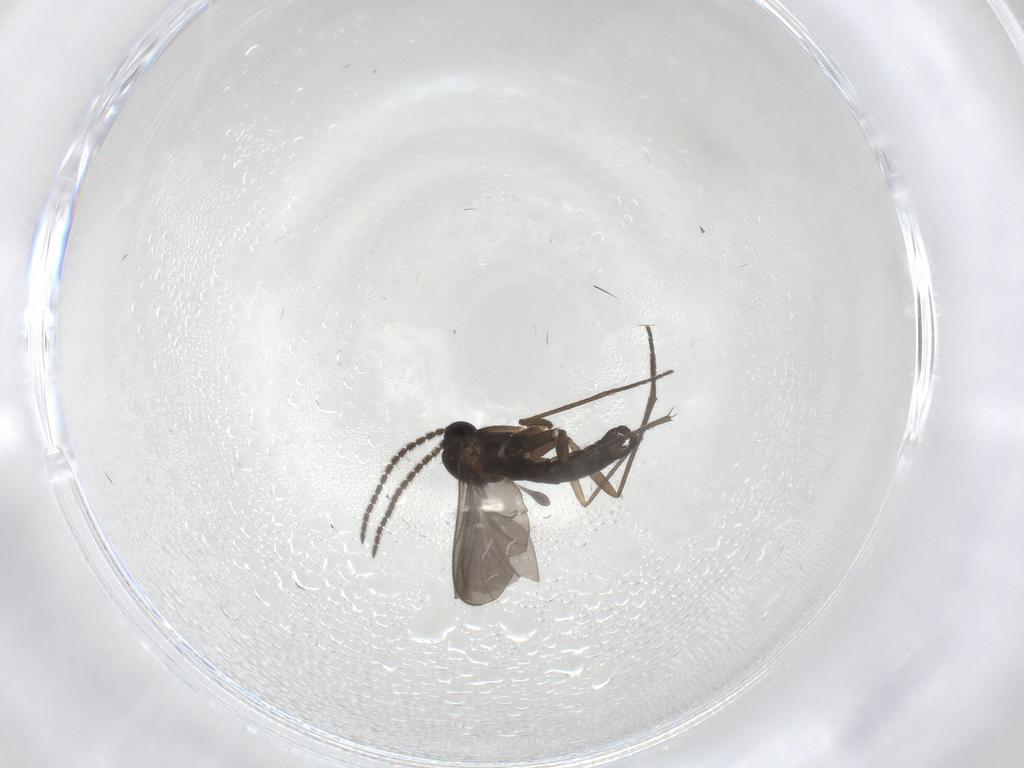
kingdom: Animalia
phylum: Arthropoda
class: Insecta
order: Diptera
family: Sciaridae
